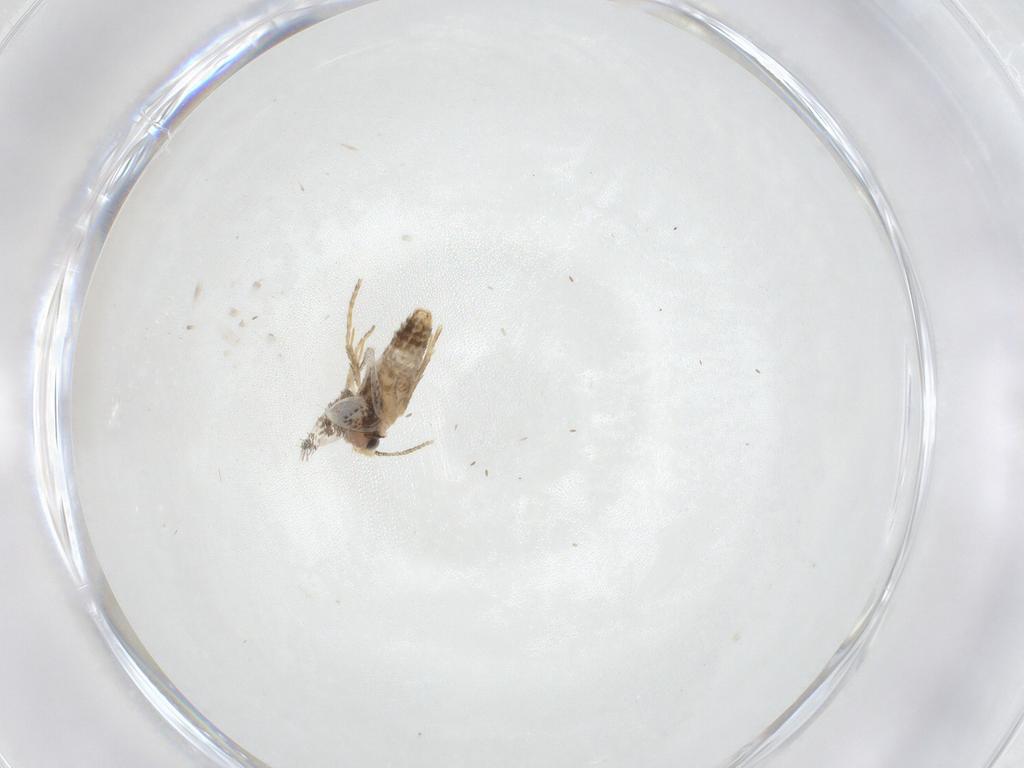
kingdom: Animalia
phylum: Arthropoda
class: Insecta
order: Lepidoptera
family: Nepticulidae
